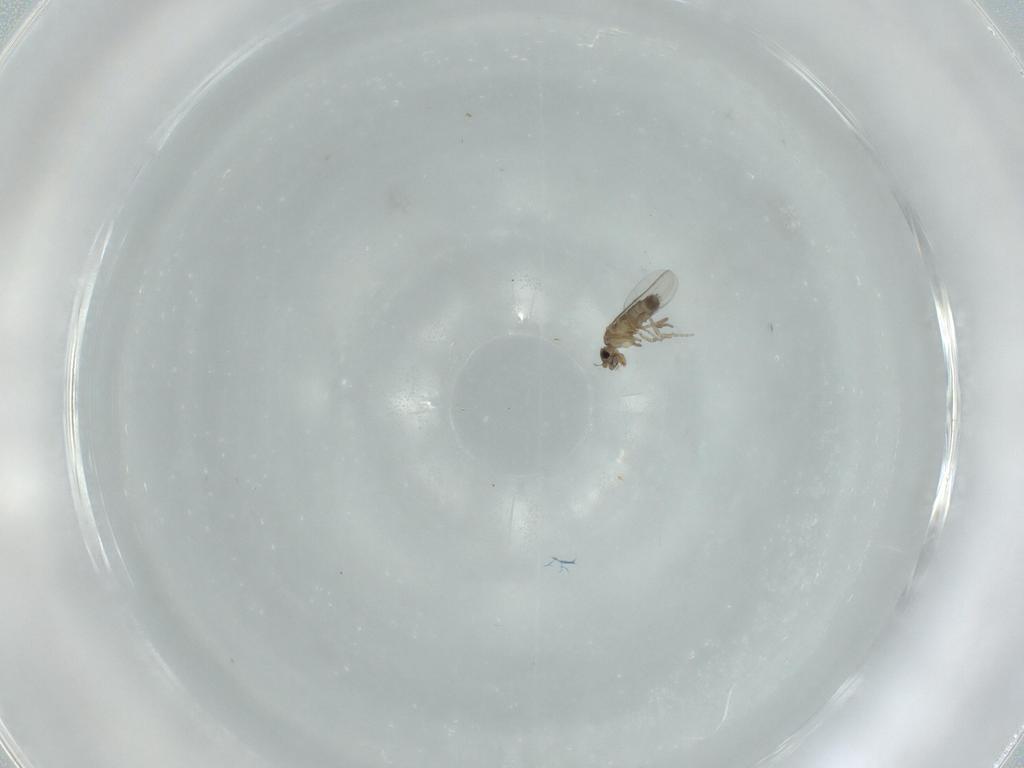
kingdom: Animalia
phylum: Arthropoda
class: Insecta
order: Diptera
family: Phoridae
